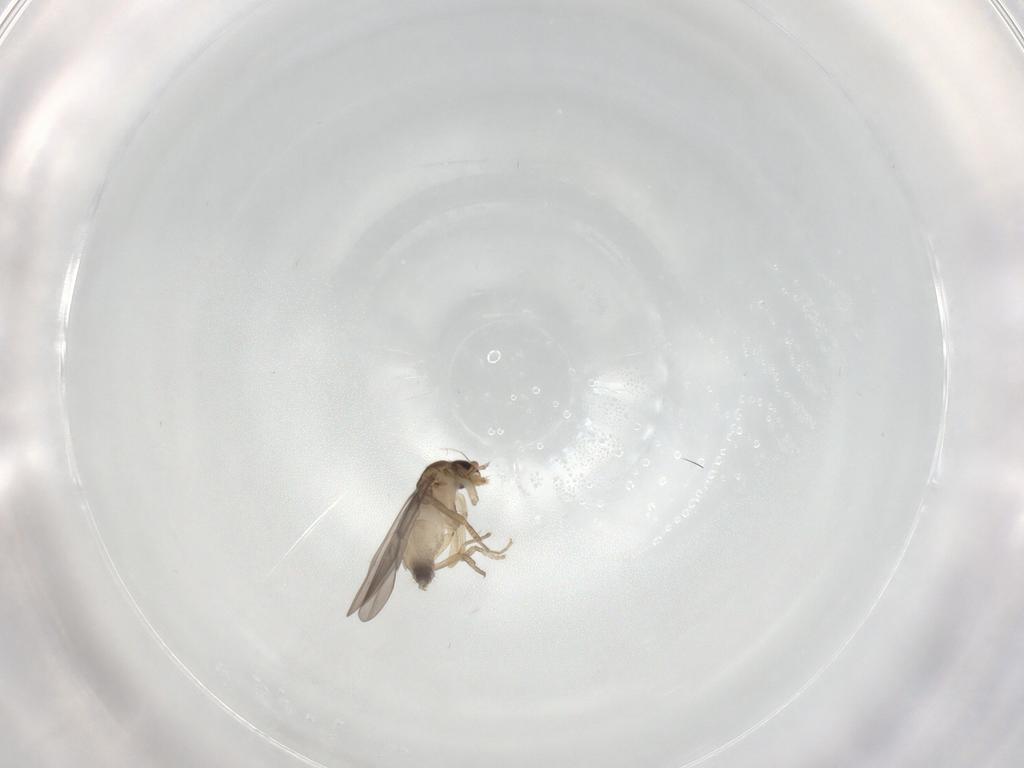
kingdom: Animalia
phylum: Arthropoda
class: Insecta
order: Diptera
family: Phoridae
